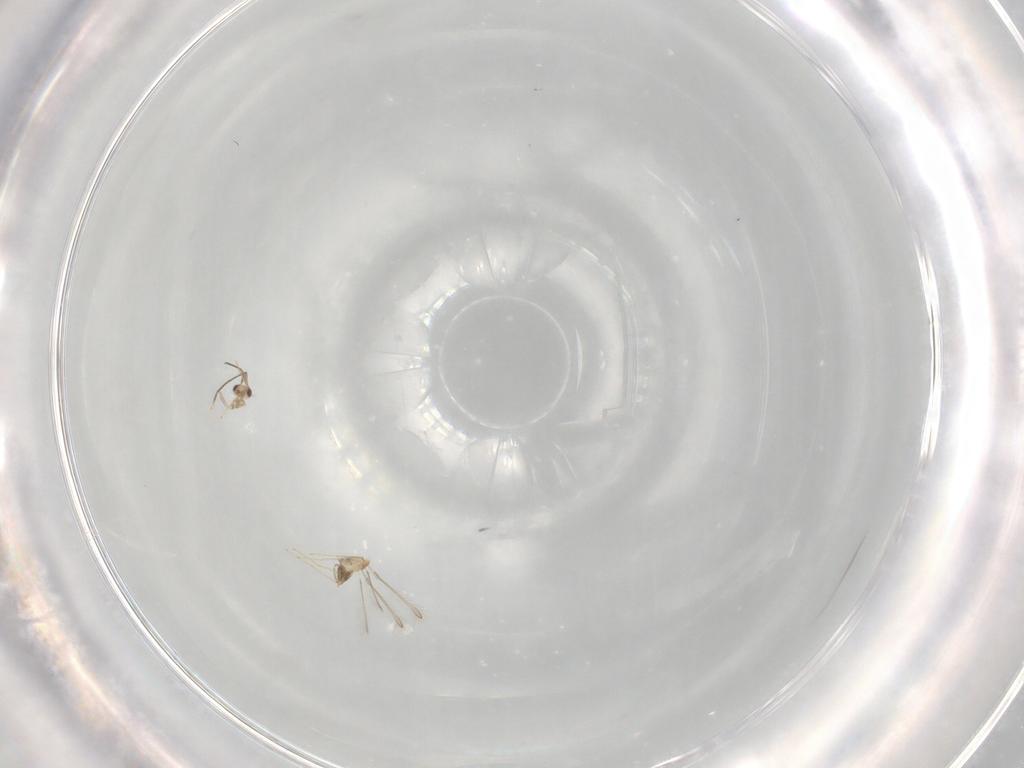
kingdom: Animalia
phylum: Arthropoda
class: Insecta
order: Hymenoptera
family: Mymaridae
